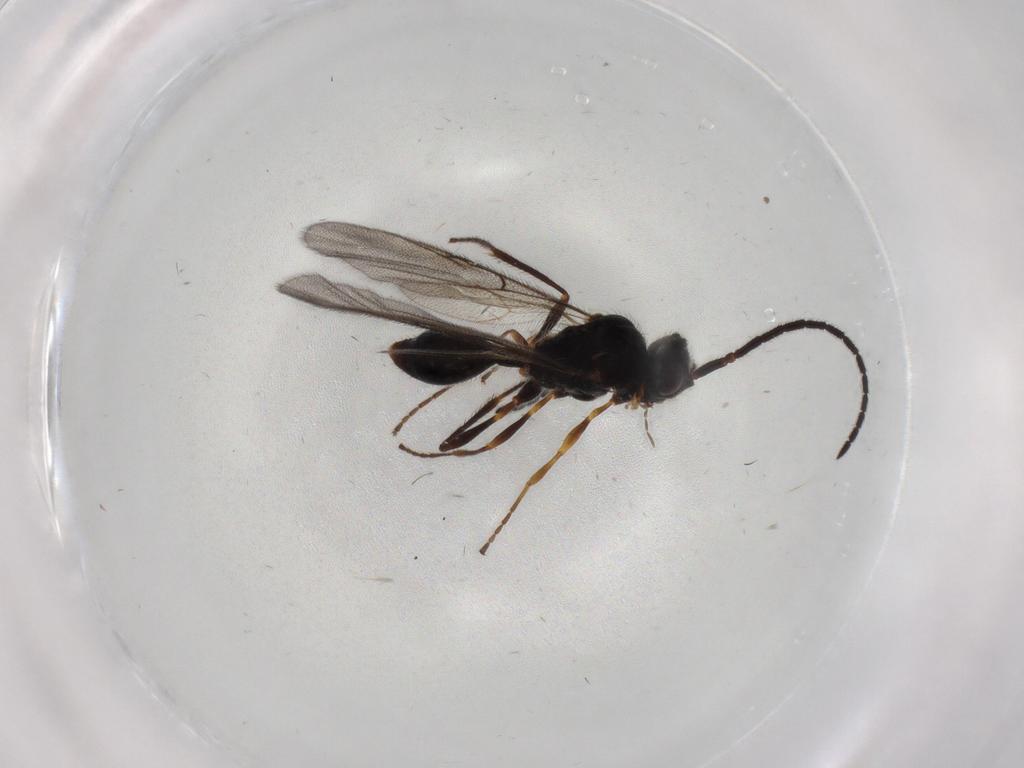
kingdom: Animalia
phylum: Arthropoda
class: Insecta
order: Hymenoptera
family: Diapriidae
